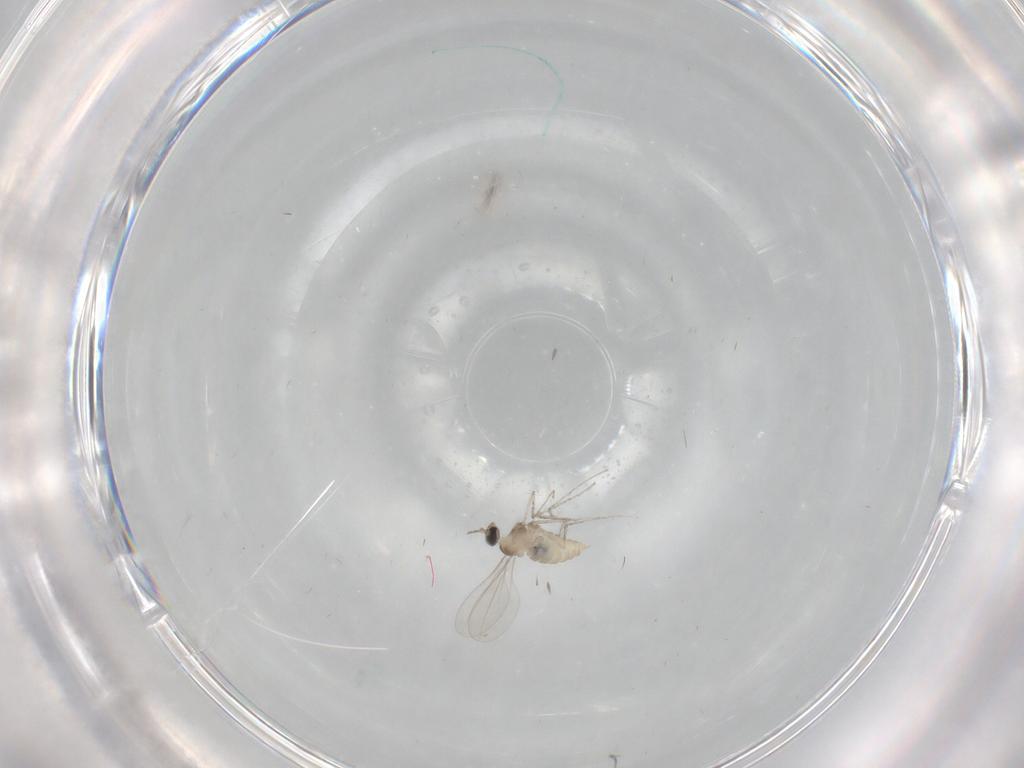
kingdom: Animalia
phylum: Arthropoda
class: Insecta
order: Diptera
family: Cecidomyiidae
